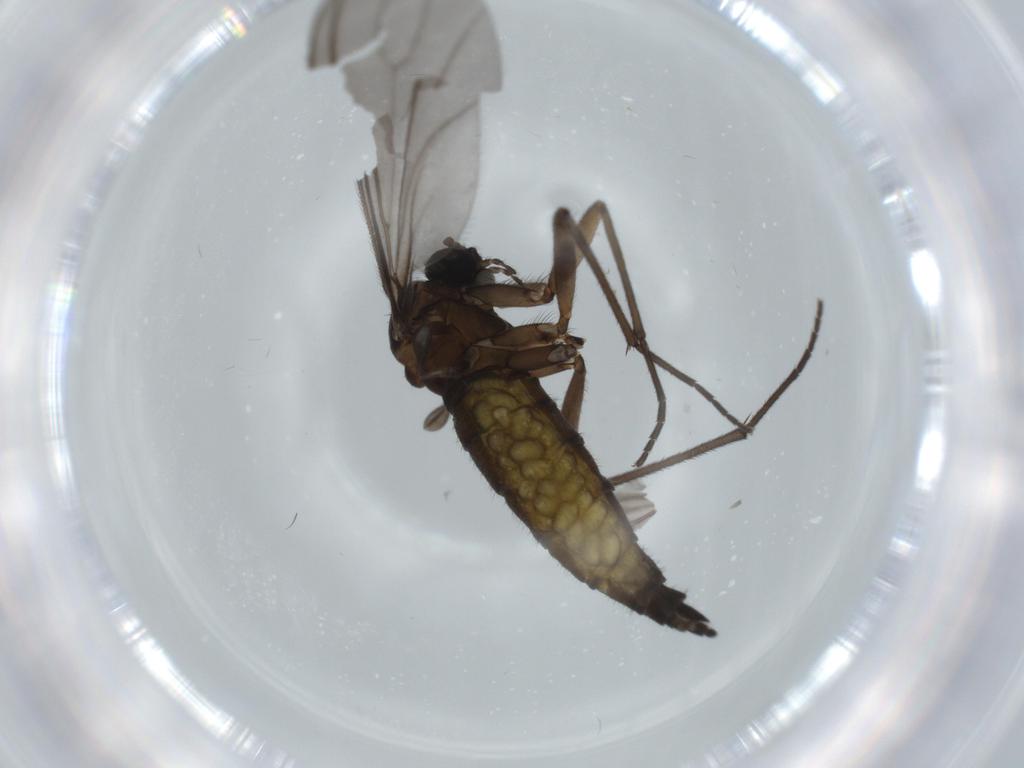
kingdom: Animalia
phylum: Arthropoda
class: Insecta
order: Diptera
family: Sciaridae
